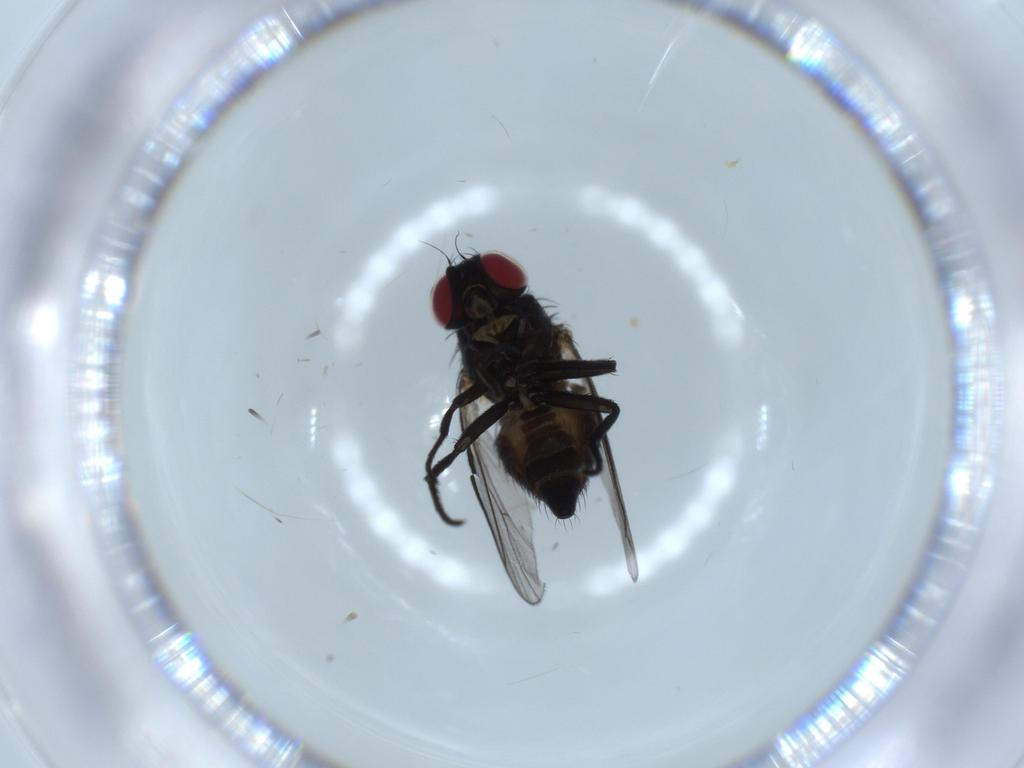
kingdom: Animalia
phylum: Arthropoda
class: Insecta
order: Diptera
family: Agromyzidae
